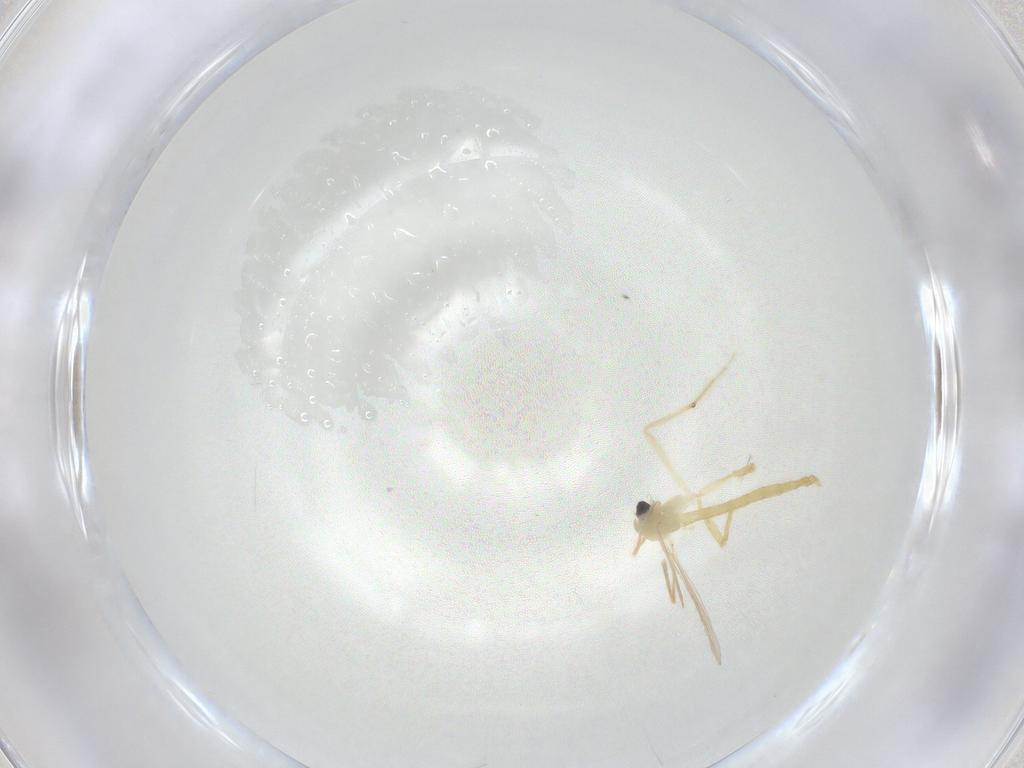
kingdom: Animalia
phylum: Arthropoda
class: Insecta
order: Diptera
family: Chironomidae
